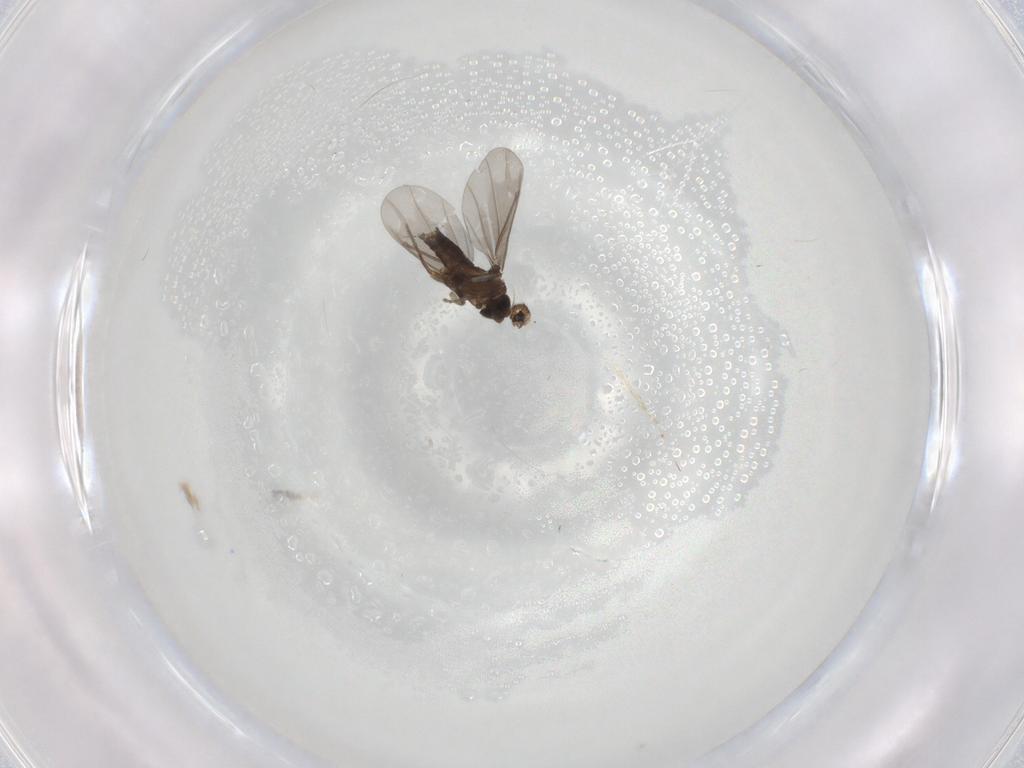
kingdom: Animalia
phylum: Arthropoda
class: Insecta
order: Diptera
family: Phoridae
